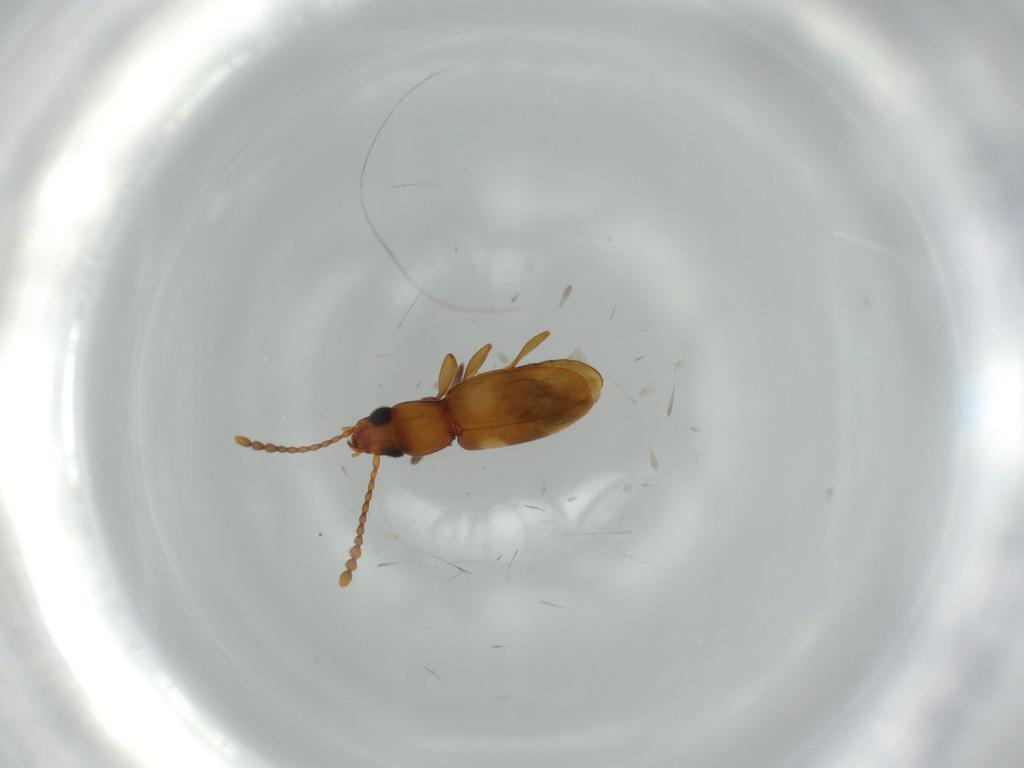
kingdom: Animalia
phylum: Arthropoda
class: Insecta
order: Coleoptera
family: Laemophloeidae
